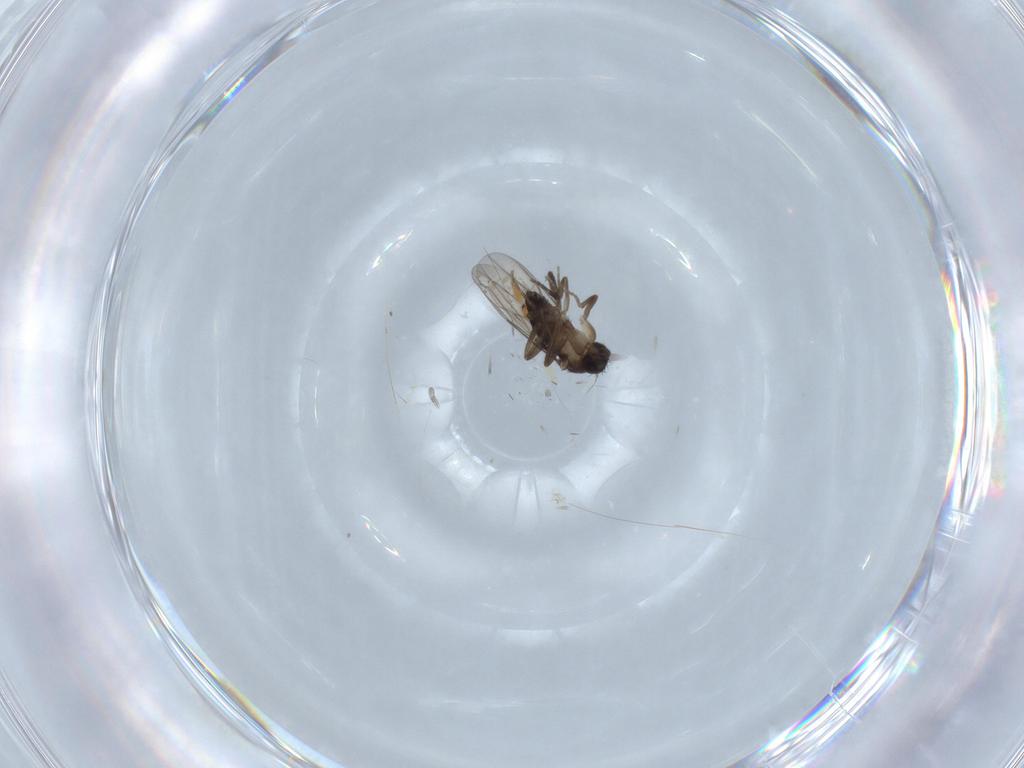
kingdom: Animalia
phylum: Arthropoda
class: Insecta
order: Diptera
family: Phoridae
